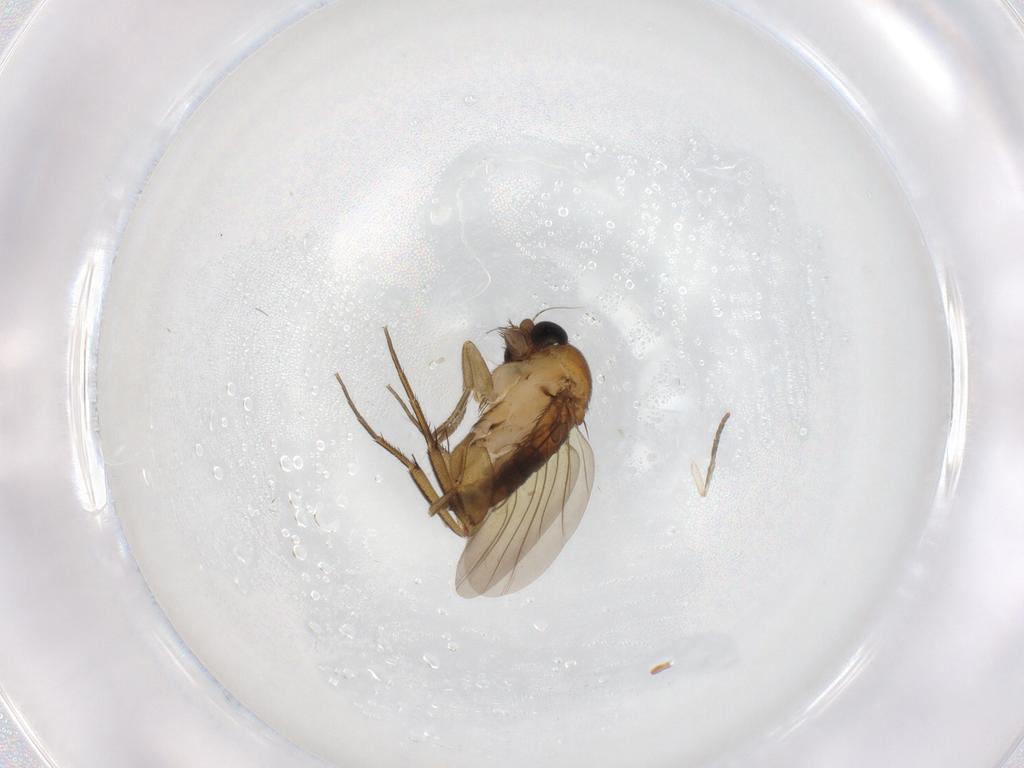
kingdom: Animalia
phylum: Arthropoda
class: Insecta
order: Diptera
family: Phoridae
